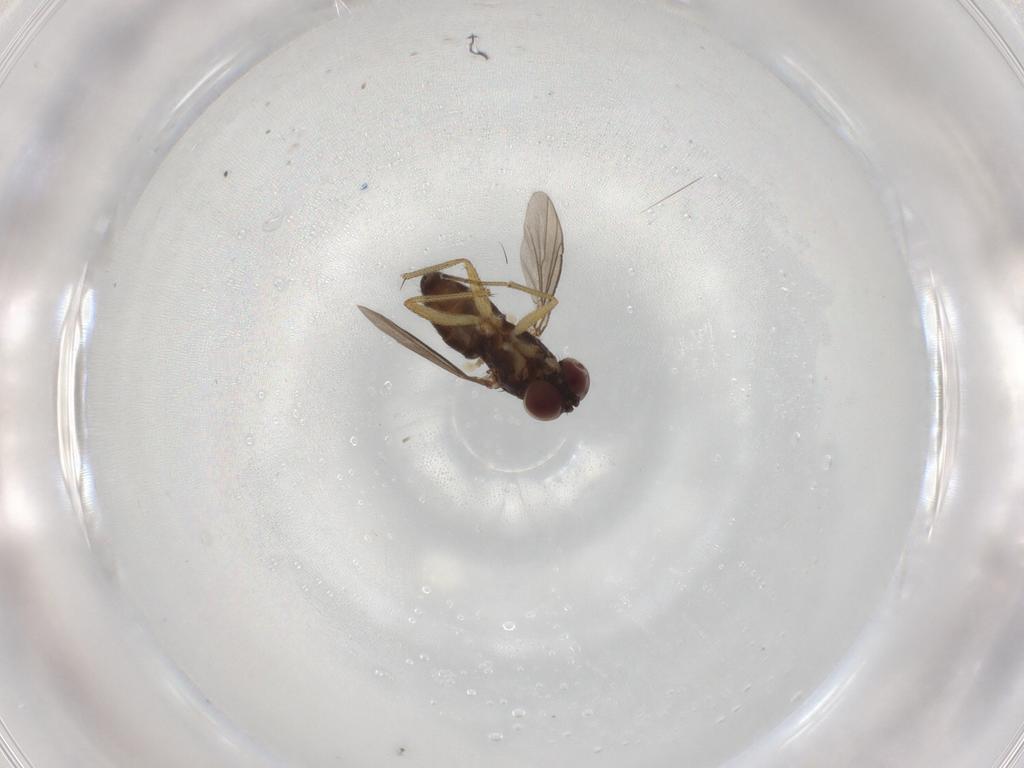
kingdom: Animalia
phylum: Arthropoda
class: Insecta
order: Diptera
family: Dolichopodidae
